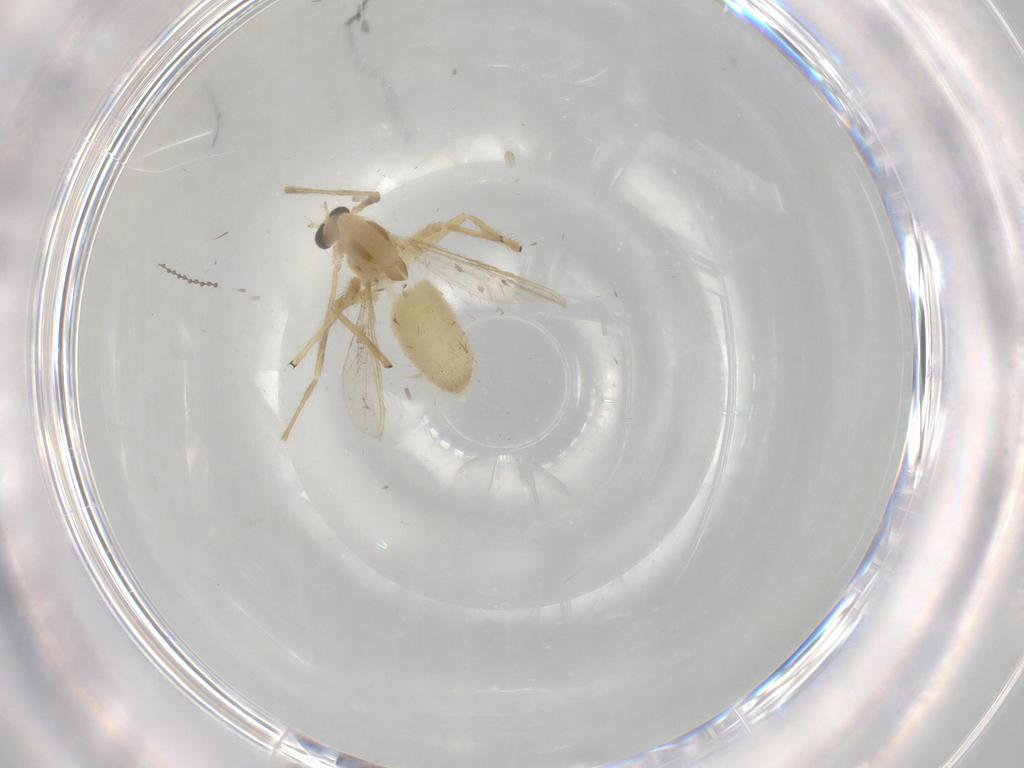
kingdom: Animalia
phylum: Arthropoda
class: Insecta
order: Diptera
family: Chironomidae
